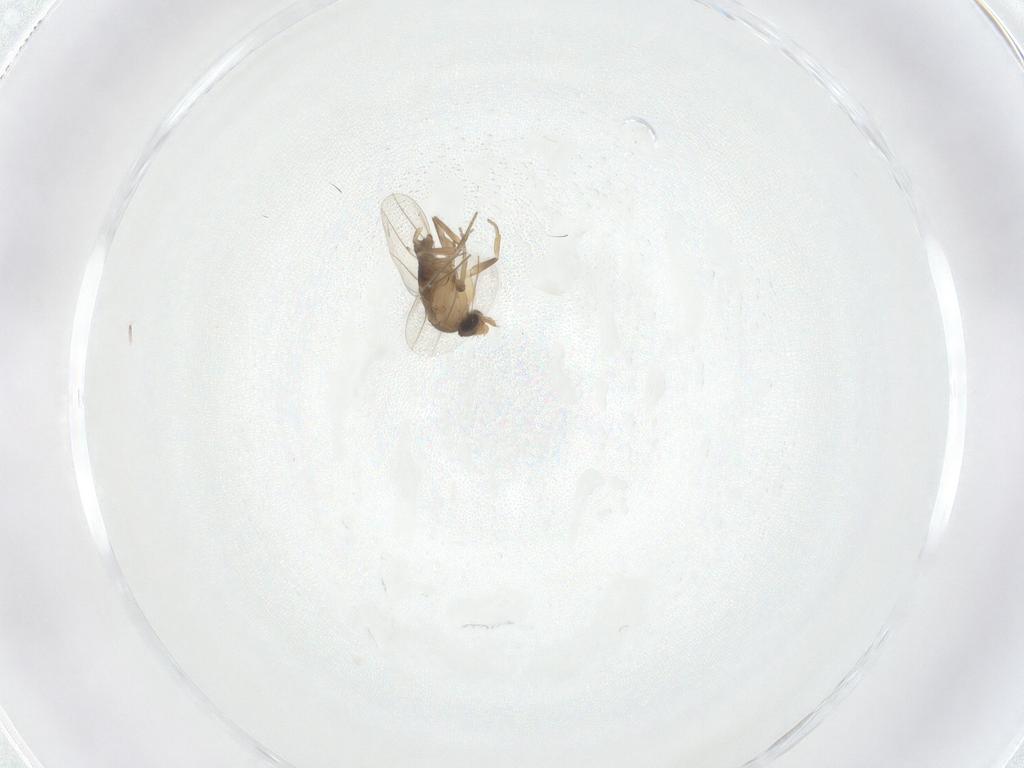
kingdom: Animalia
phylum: Arthropoda
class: Insecta
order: Diptera
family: Phoridae
